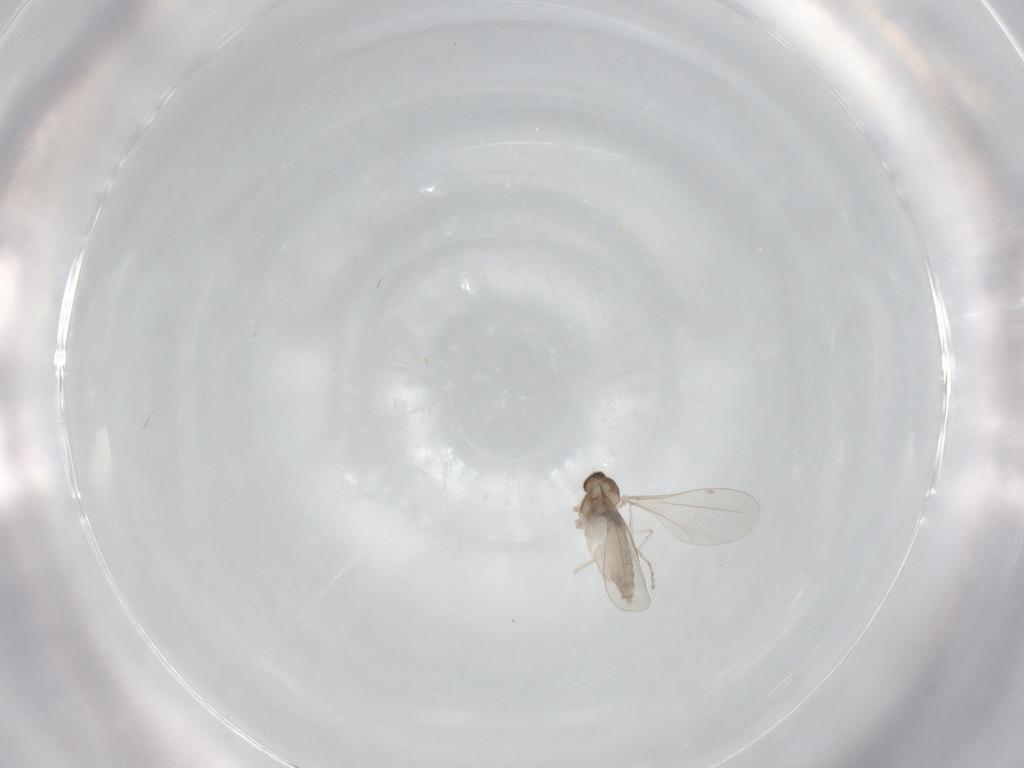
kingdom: Animalia
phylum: Arthropoda
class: Insecta
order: Diptera
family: Cecidomyiidae
